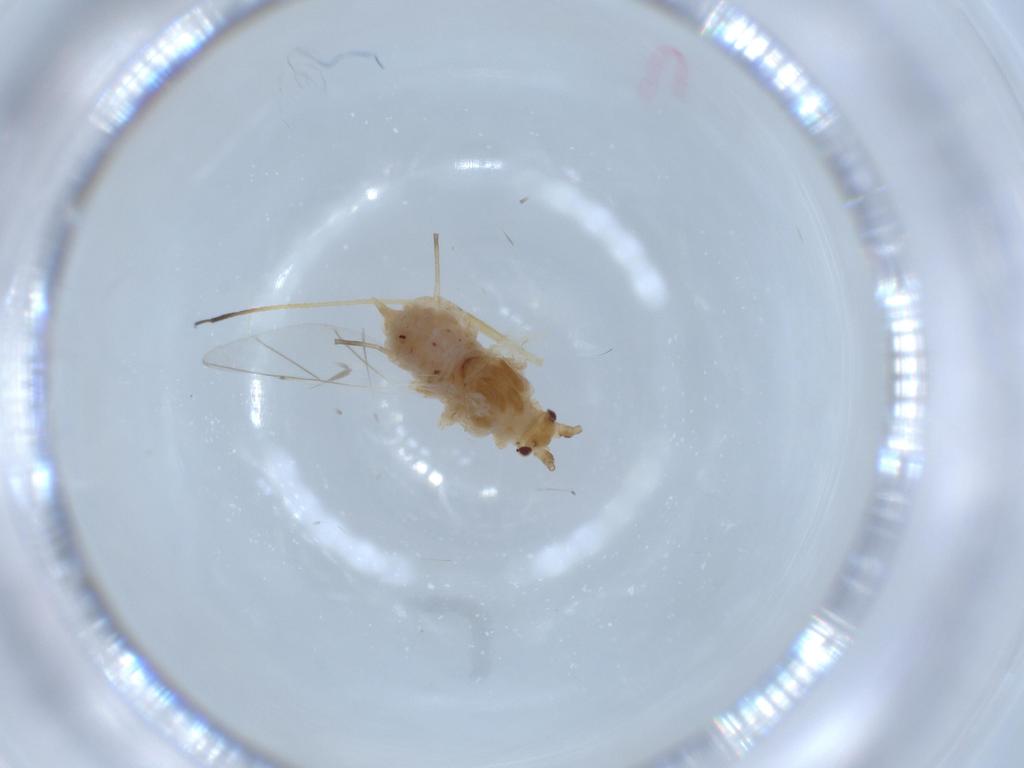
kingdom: Animalia
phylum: Arthropoda
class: Insecta
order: Hemiptera
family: Aphididae
